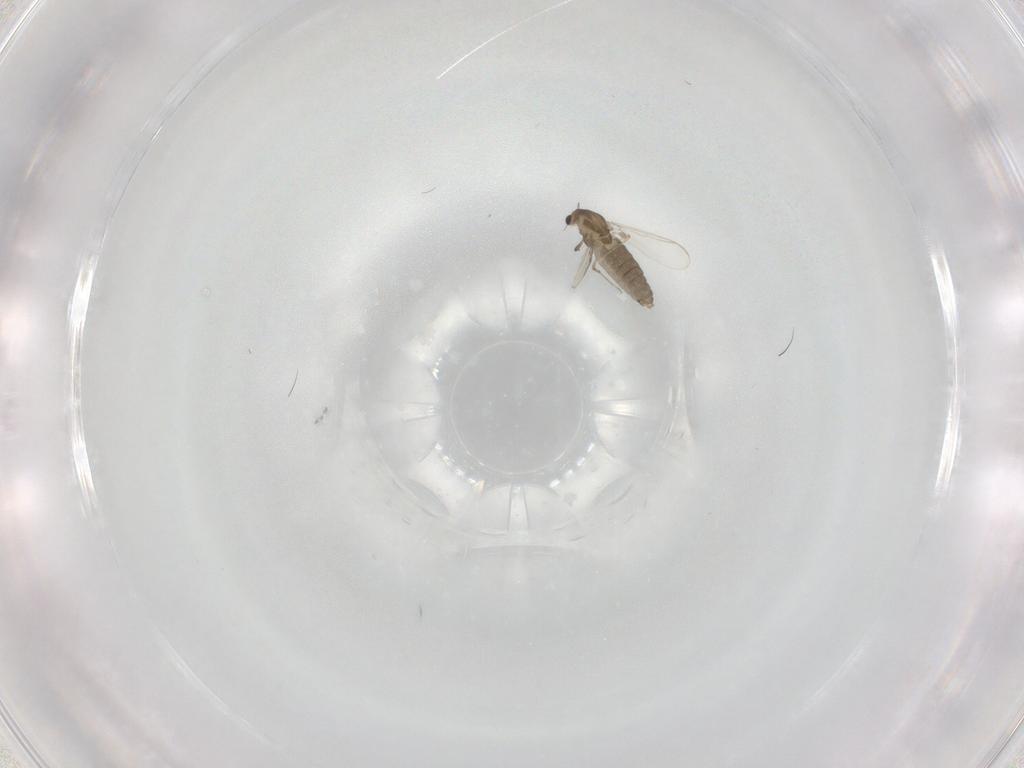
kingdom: Animalia
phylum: Arthropoda
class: Insecta
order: Diptera
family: Chironomidae
